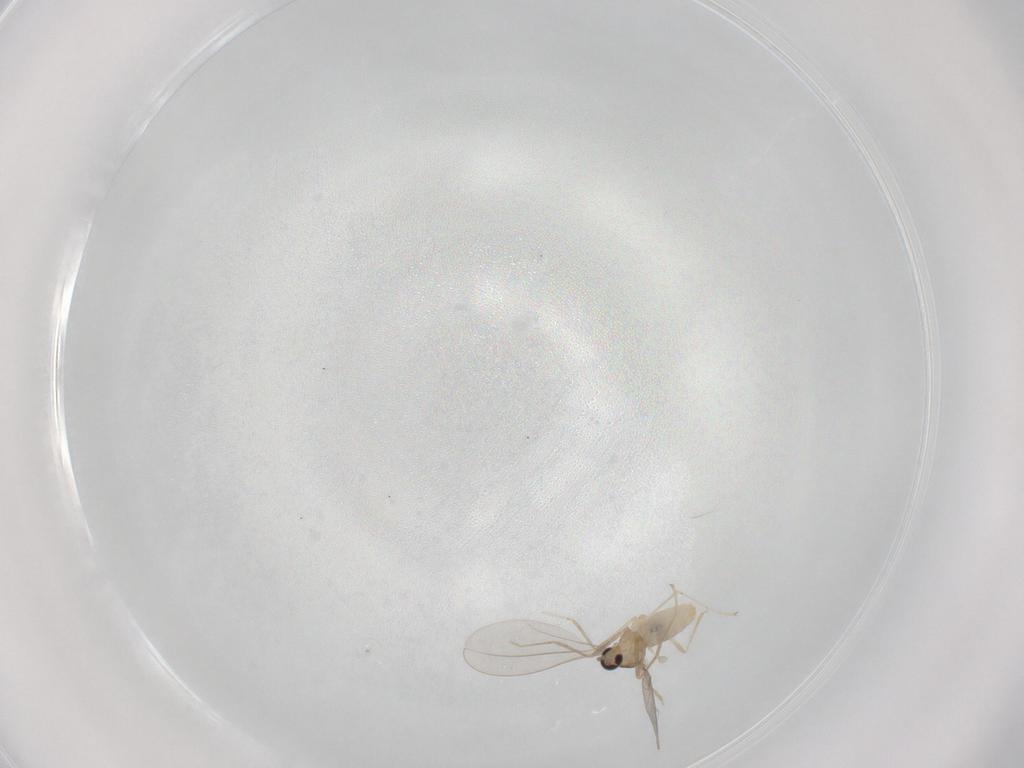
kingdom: Animalia
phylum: Arthropoda
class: Insecta
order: Diptera
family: Cecidomyiidae
